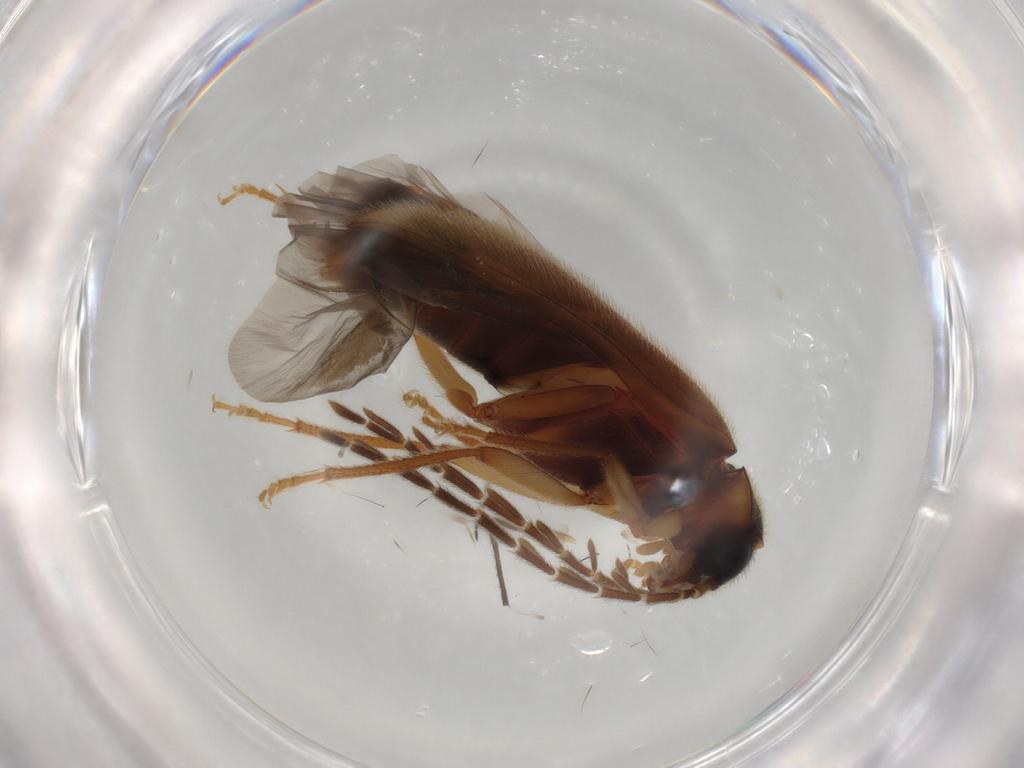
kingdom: Animalia
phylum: Arthropoda
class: Insecta
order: Coleoptera
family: Ptilodactylidae
